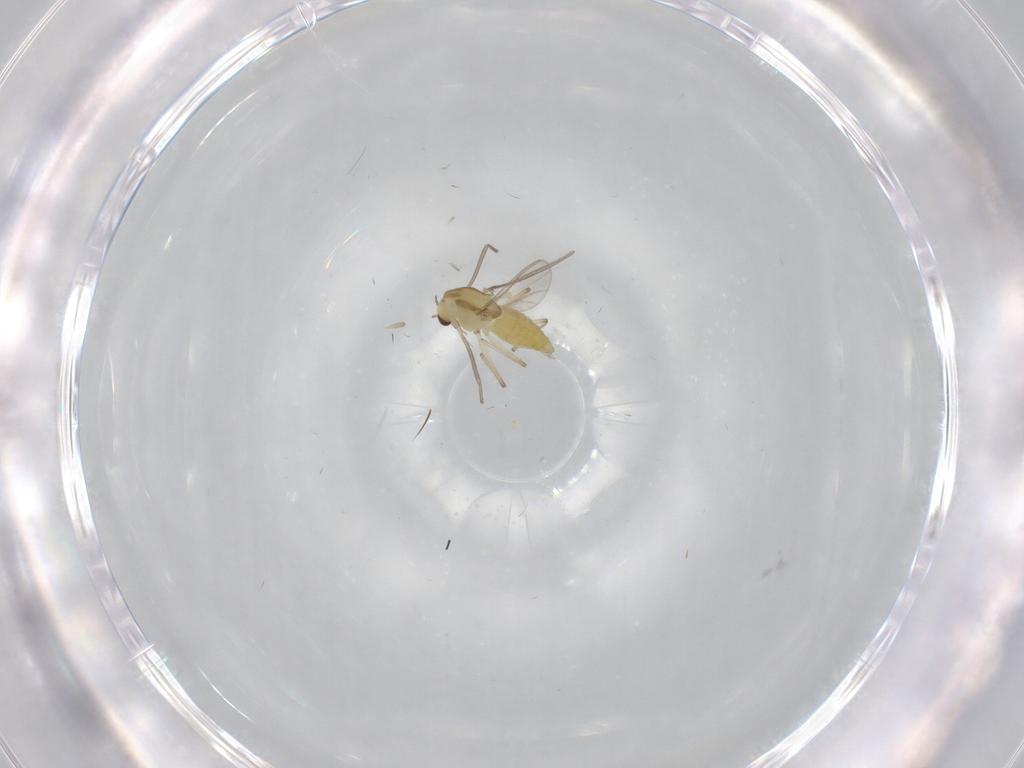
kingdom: Animalia
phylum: Arthropoda
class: Insecta
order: Diptera
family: Chironomidae
